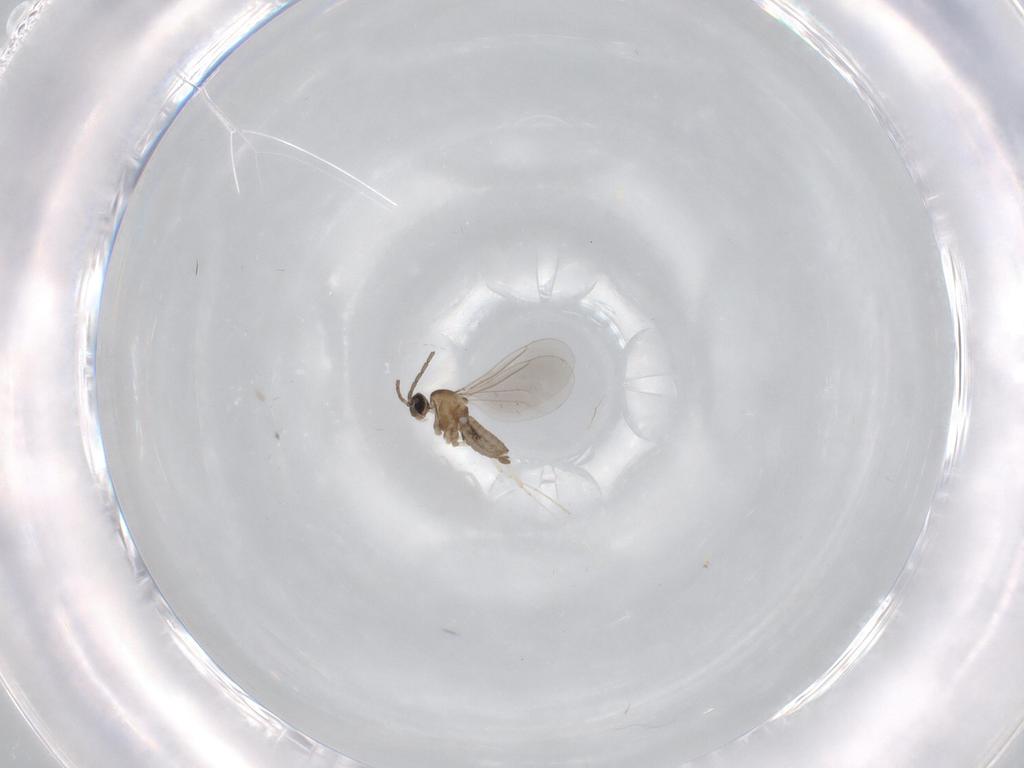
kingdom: Animalia
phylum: Arthropoda
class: Insecta
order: Diptera
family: Cecidomyiidae
